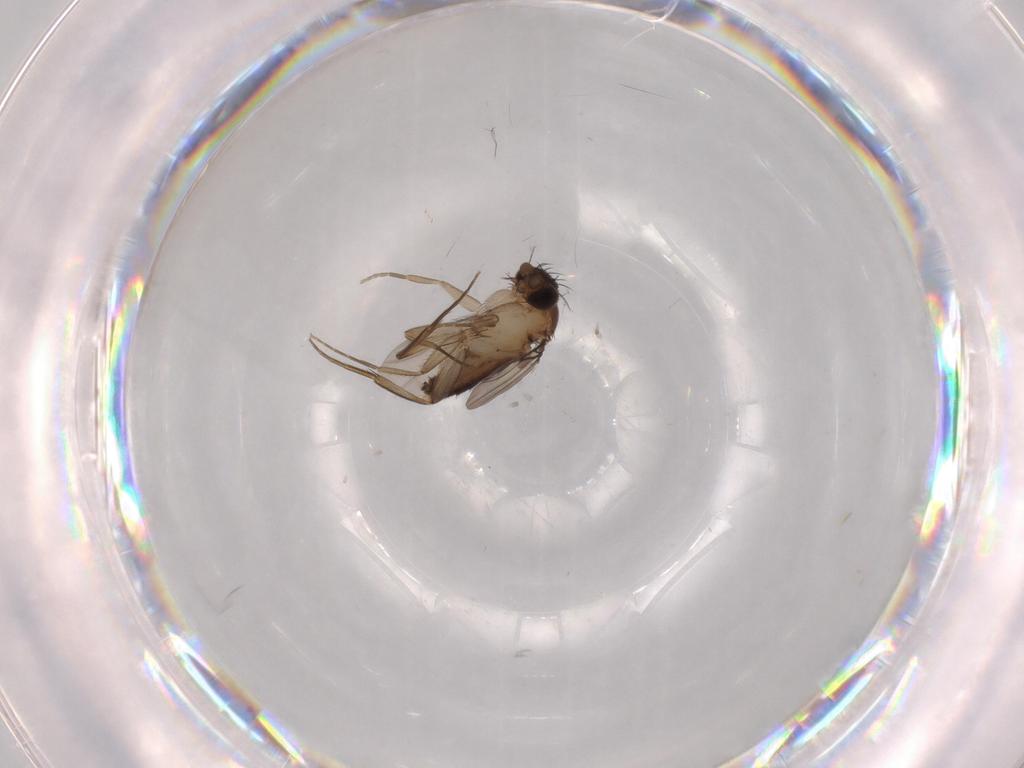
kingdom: Animalia
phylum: Arthropoda
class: Insecta
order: Diptera
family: Phoridae
